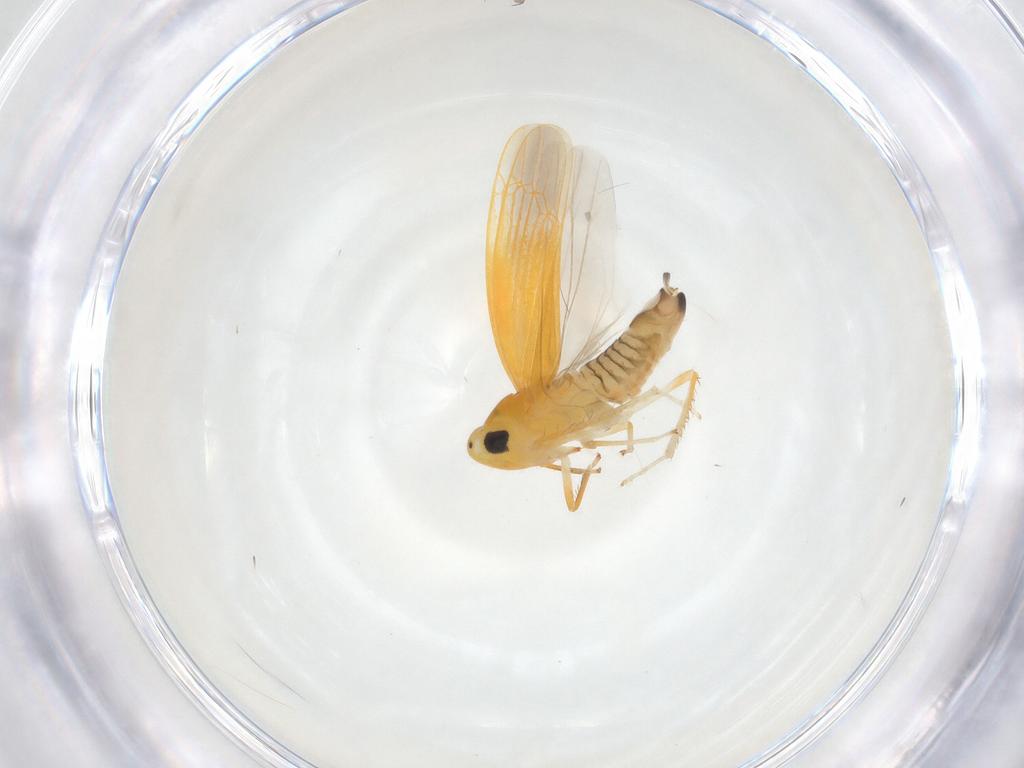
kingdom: Animalia
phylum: Arthropoda
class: Insecta
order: Hemiptera
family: Cicadellidae
